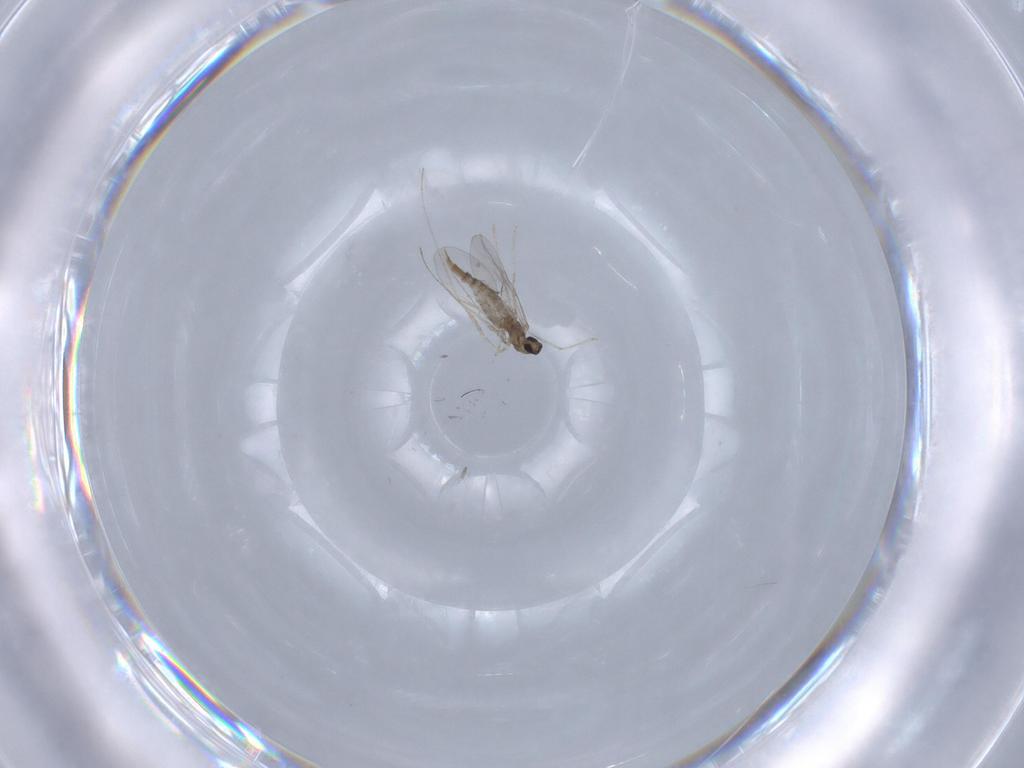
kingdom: Animalia
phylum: Arthropoda
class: Insecta
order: Diptera
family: Cecidomyiidae
